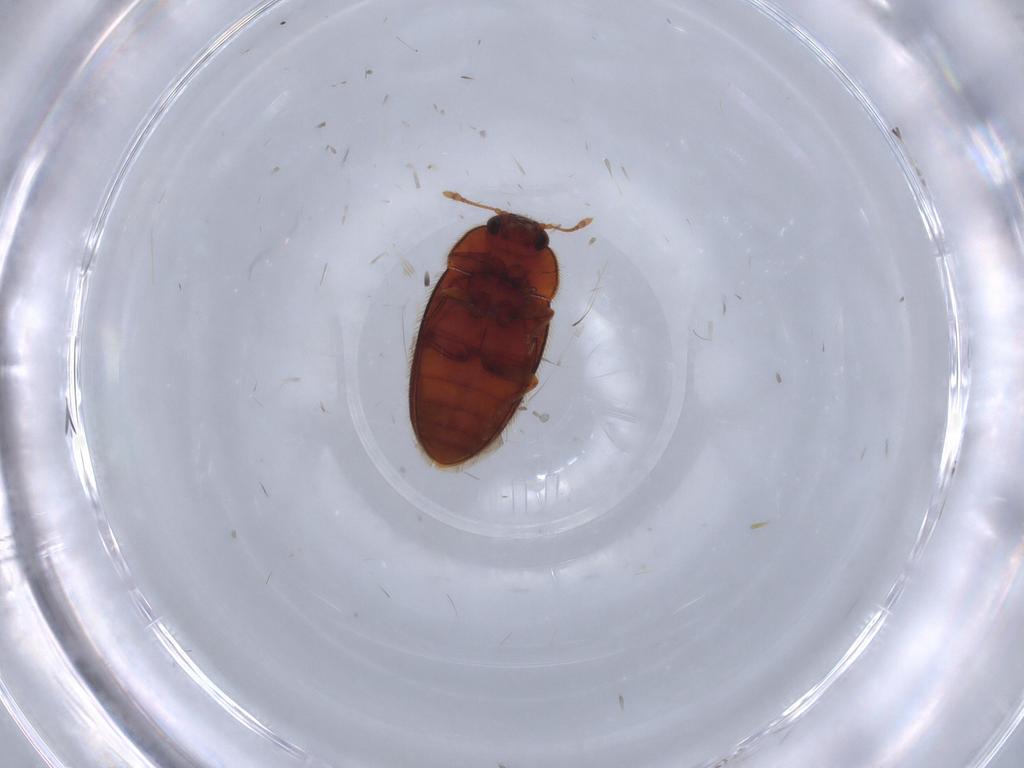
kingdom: Animalia
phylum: Arthropoda
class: Insecta
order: Coleoptera
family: Biphyllidae
